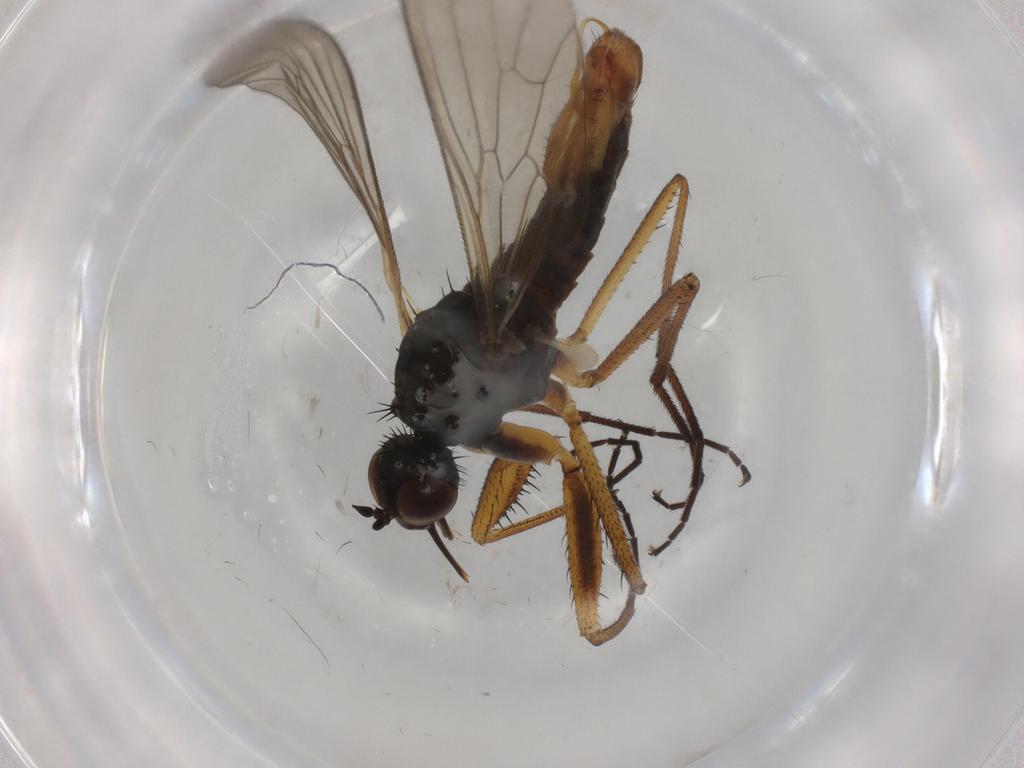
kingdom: Animalia
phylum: Arthropoda
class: Insecta
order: Diptera
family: Empididae
